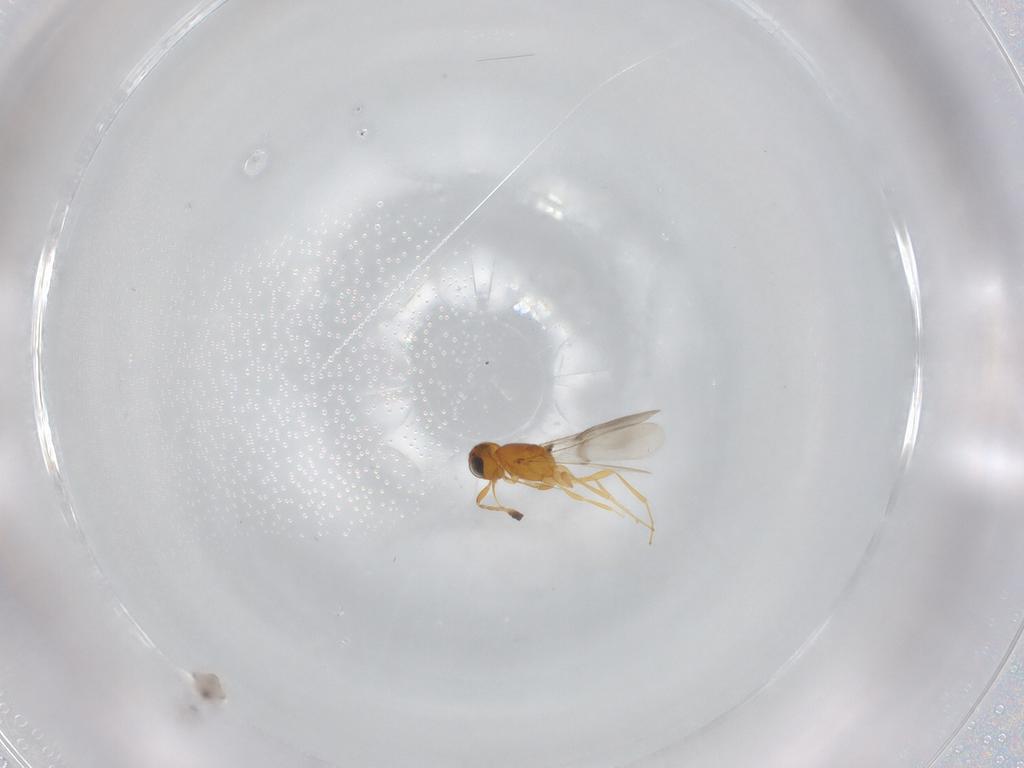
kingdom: Animalia
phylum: Arthropoda
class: Insecta
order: Hymenoptera
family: Scelionidae
